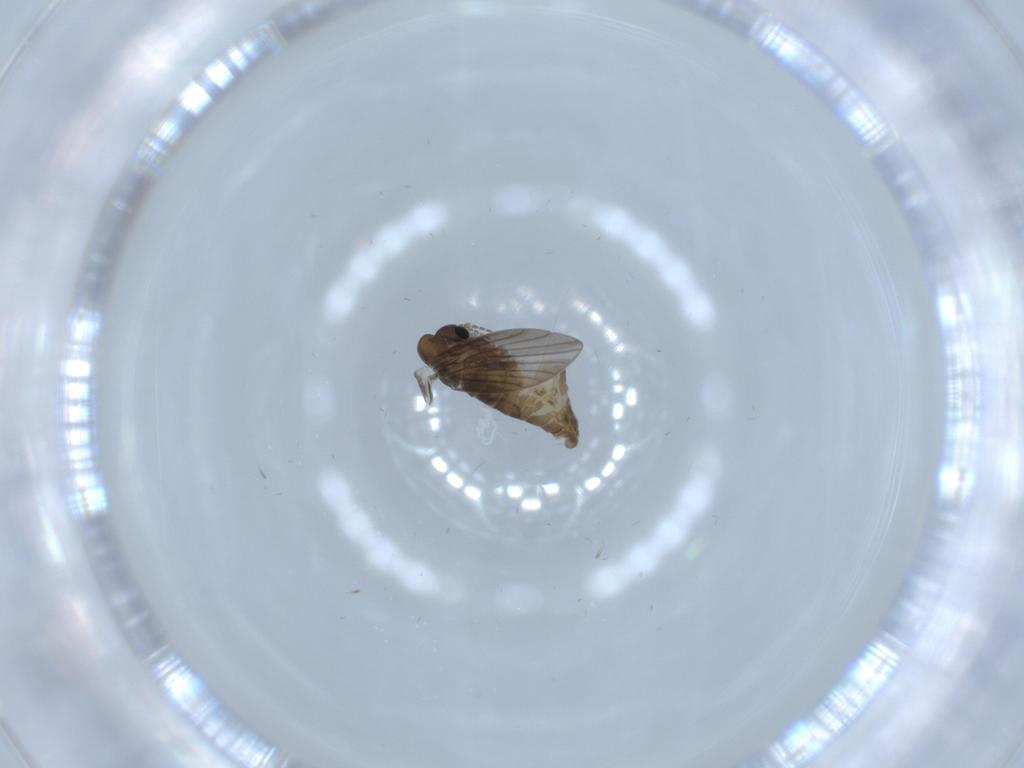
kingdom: Animalia
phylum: Arthropoda
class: Insecta
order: Diptera
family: Psychodidae
